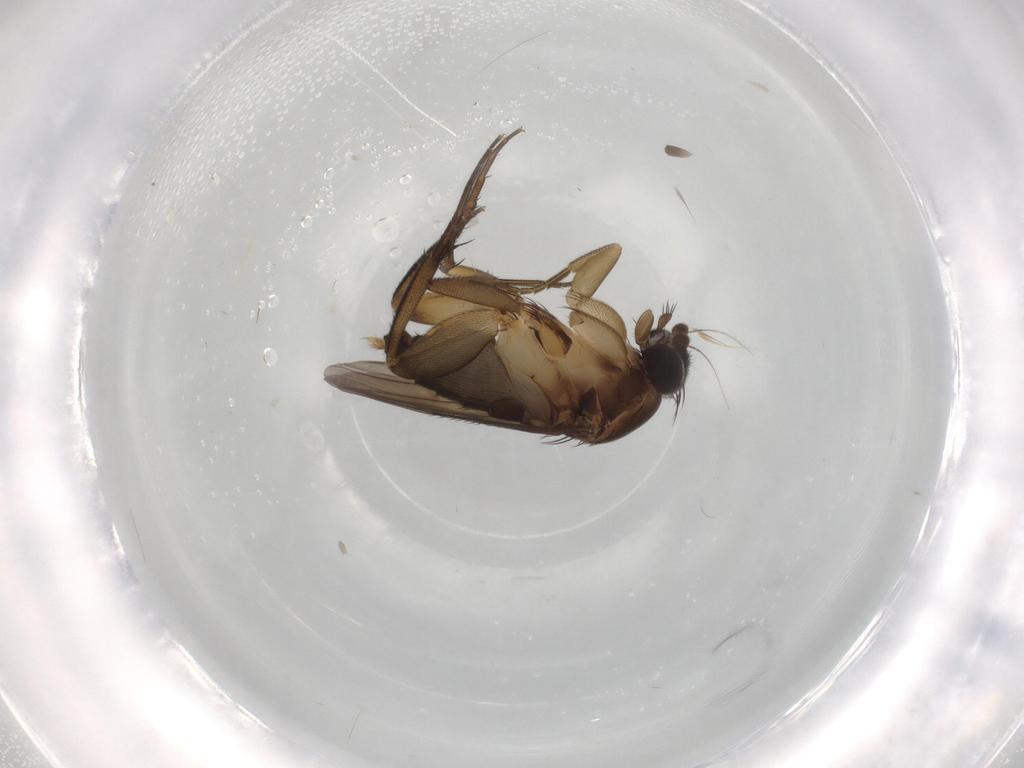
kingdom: Animalia
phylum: Arthropoda
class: Insecta
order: Diptera
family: Phoridae
